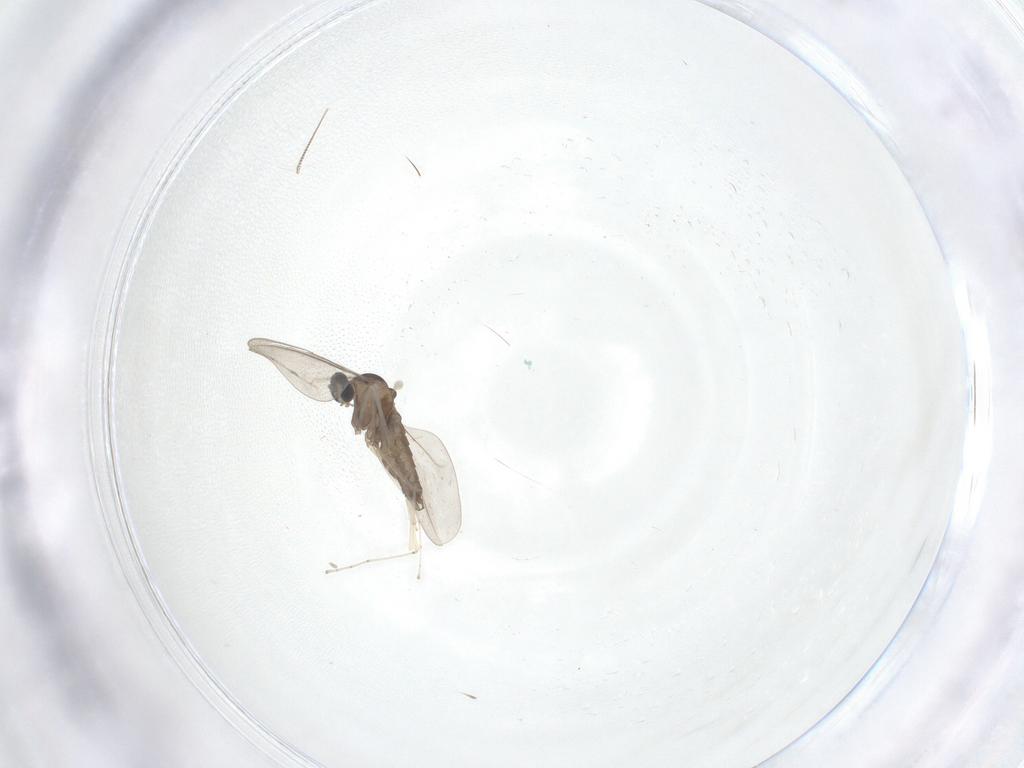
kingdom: Animalia
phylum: Arthropoda
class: Insecta
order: Diptera
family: Cecidomyiidae
